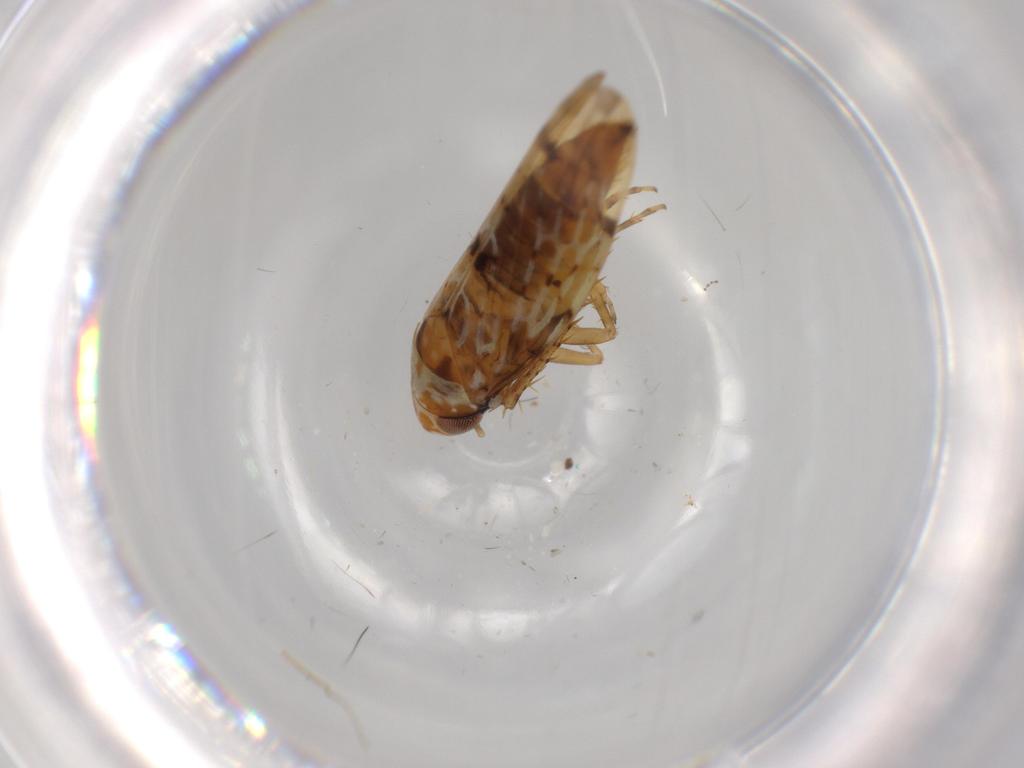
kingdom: Animalia
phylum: Arthropoda
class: Insecta
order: Hemiptera
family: Cicadellidae
